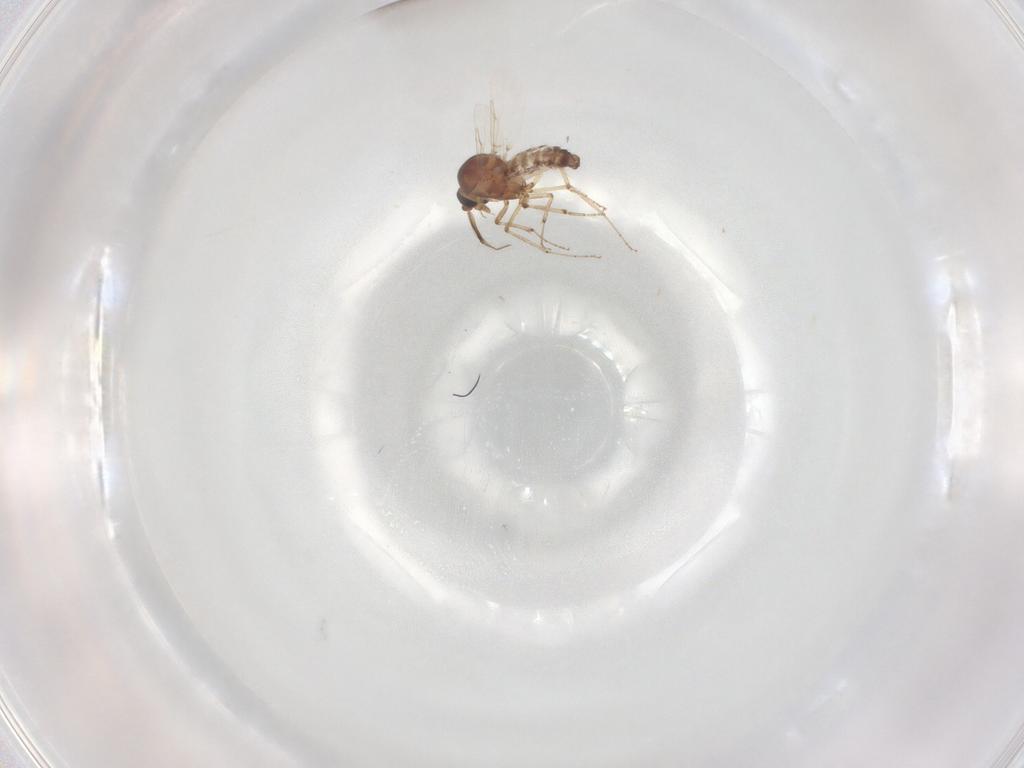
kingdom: Animalia
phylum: Arthropoda
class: Insecta
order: Diptera
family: Ceratopogonidae
